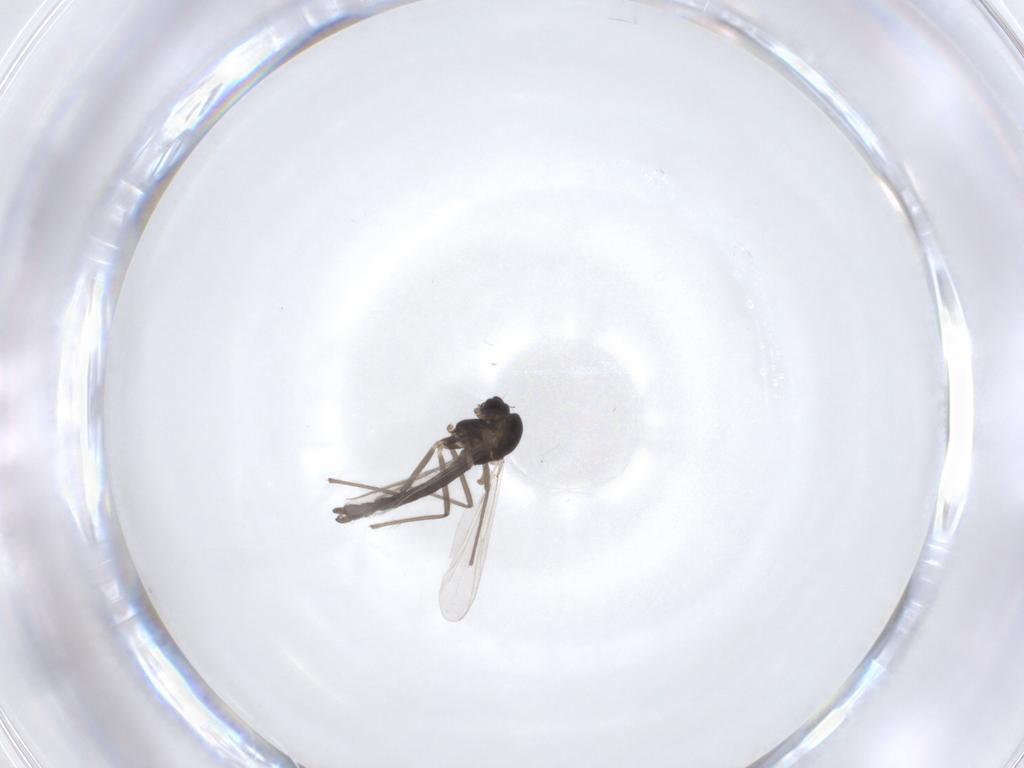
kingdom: Animalia
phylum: Arthropoda
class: Insecta
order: Diptera
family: Chironomidae
